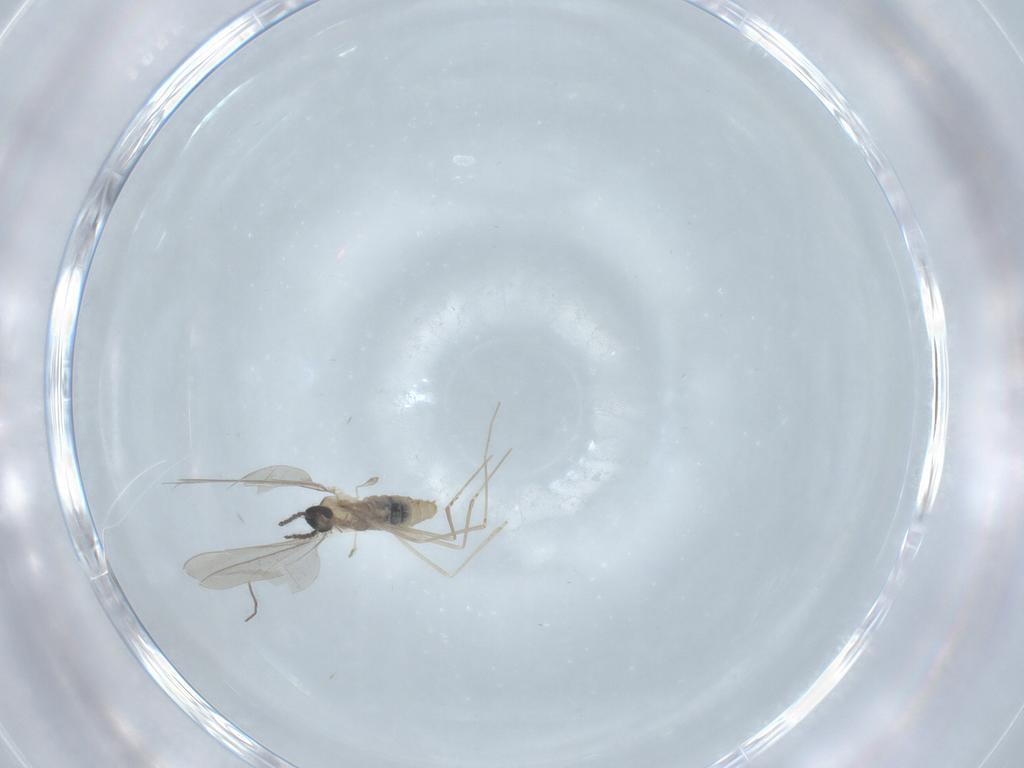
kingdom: Animalia
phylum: Arthropoda
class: Insecta
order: Diptera
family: Chironomidae
